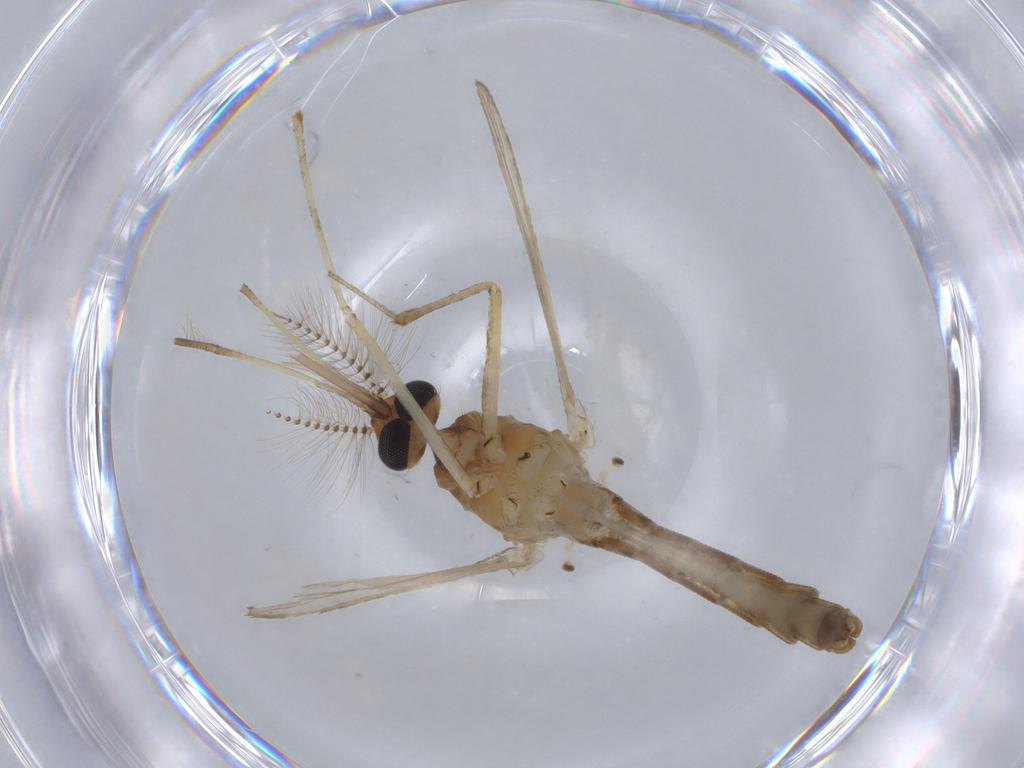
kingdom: Animalia
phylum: Arthropoda
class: Insecta
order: Diptera
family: Culicidae
